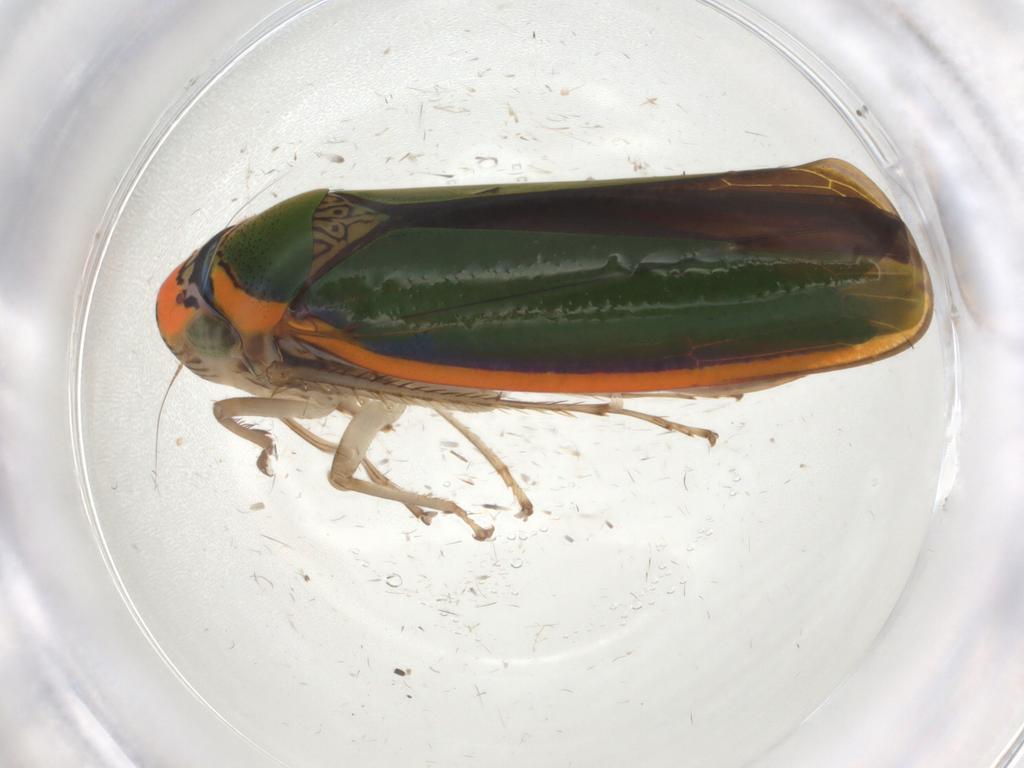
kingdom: Animalia
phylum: Arthropoda
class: Insecta
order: Hemiptera
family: Cicadellidae
